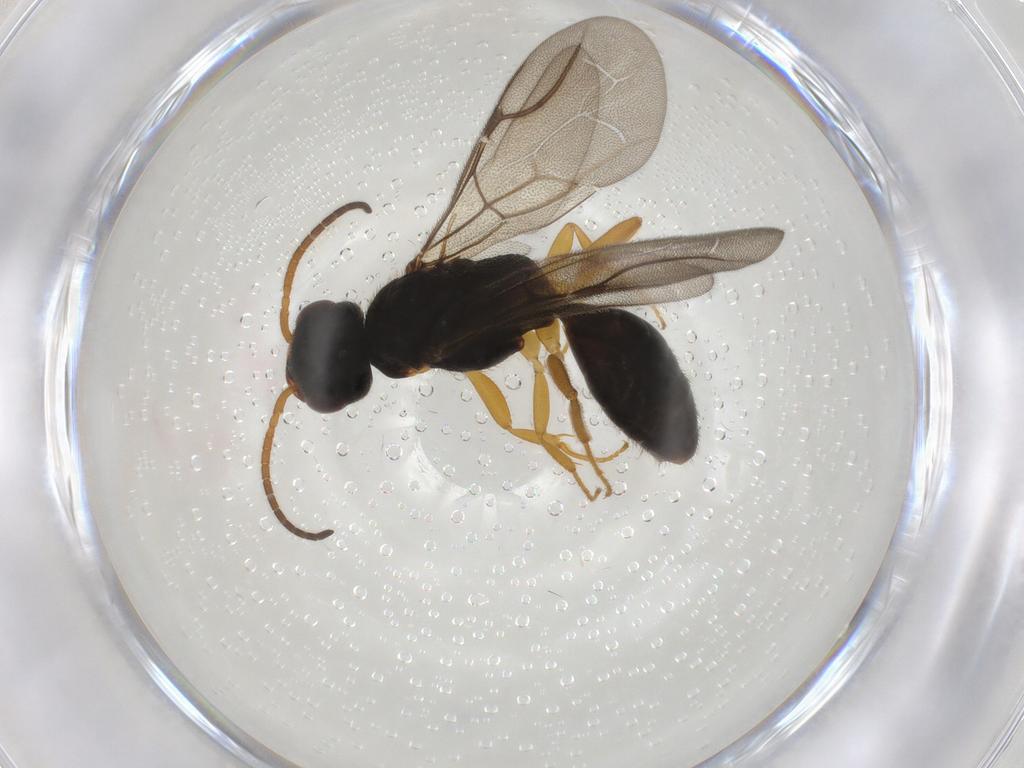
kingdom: Animalia
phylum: Arthropoda
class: Insecta
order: Hymenoptera
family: Bethylidae
